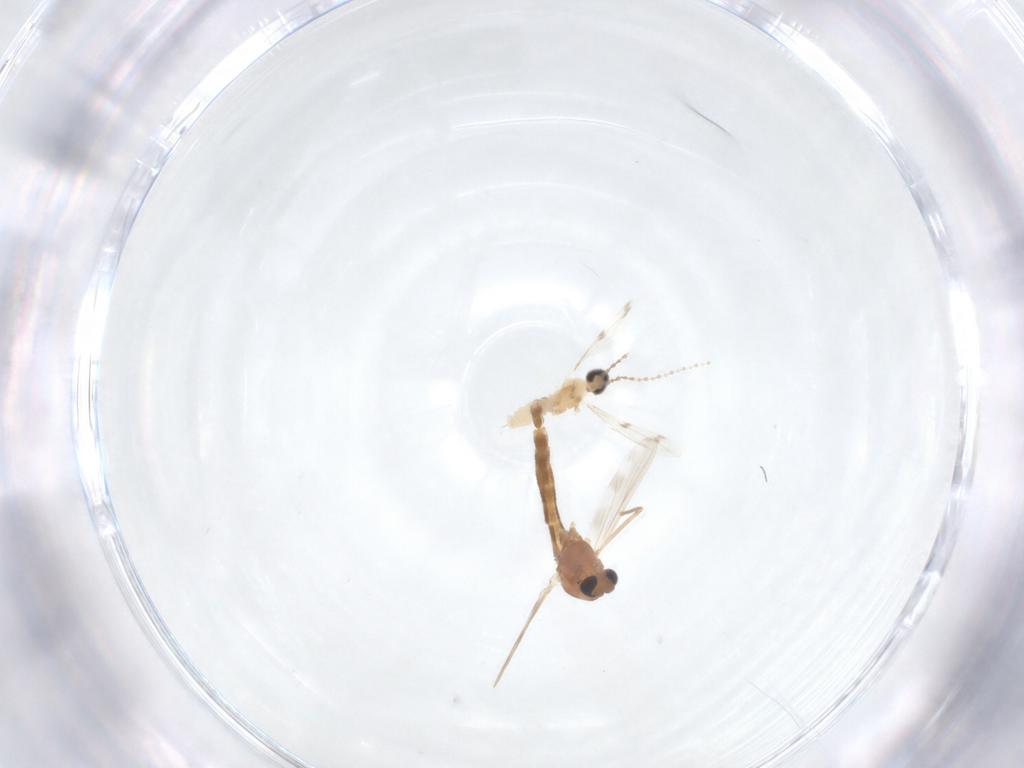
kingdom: Animalia
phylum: Arthropoda
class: Insecta
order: Diptera
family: Cecidomyiidae
